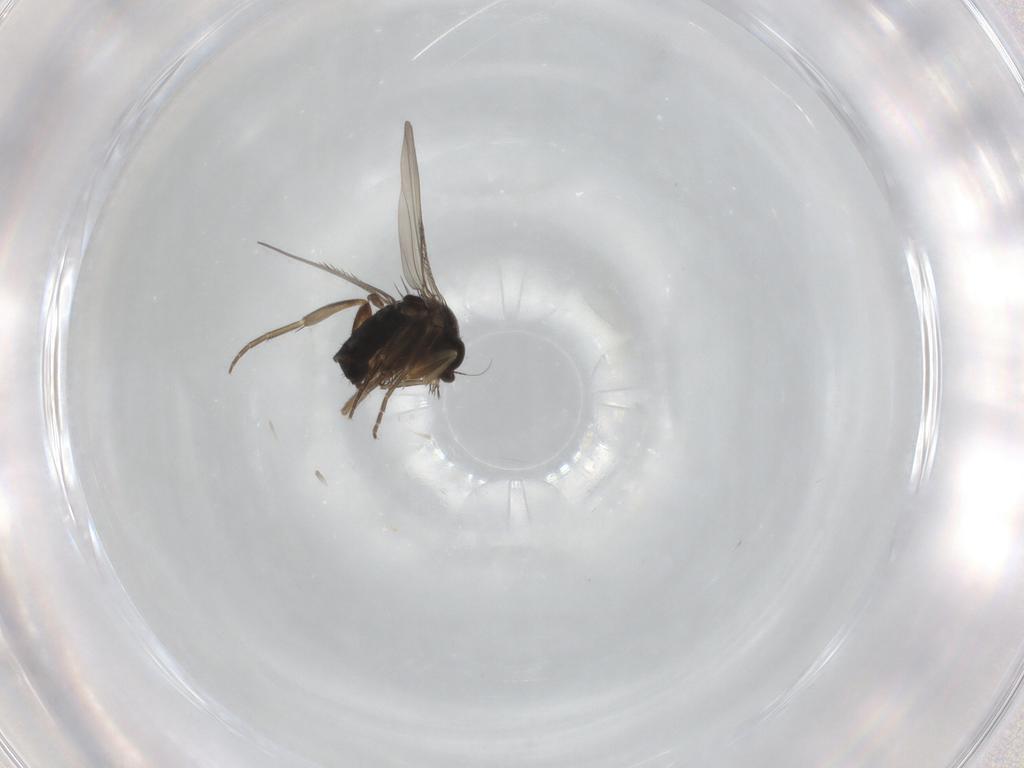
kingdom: Animalia
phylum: Arthropoda
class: Insecta
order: Diptera
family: Phoridae
